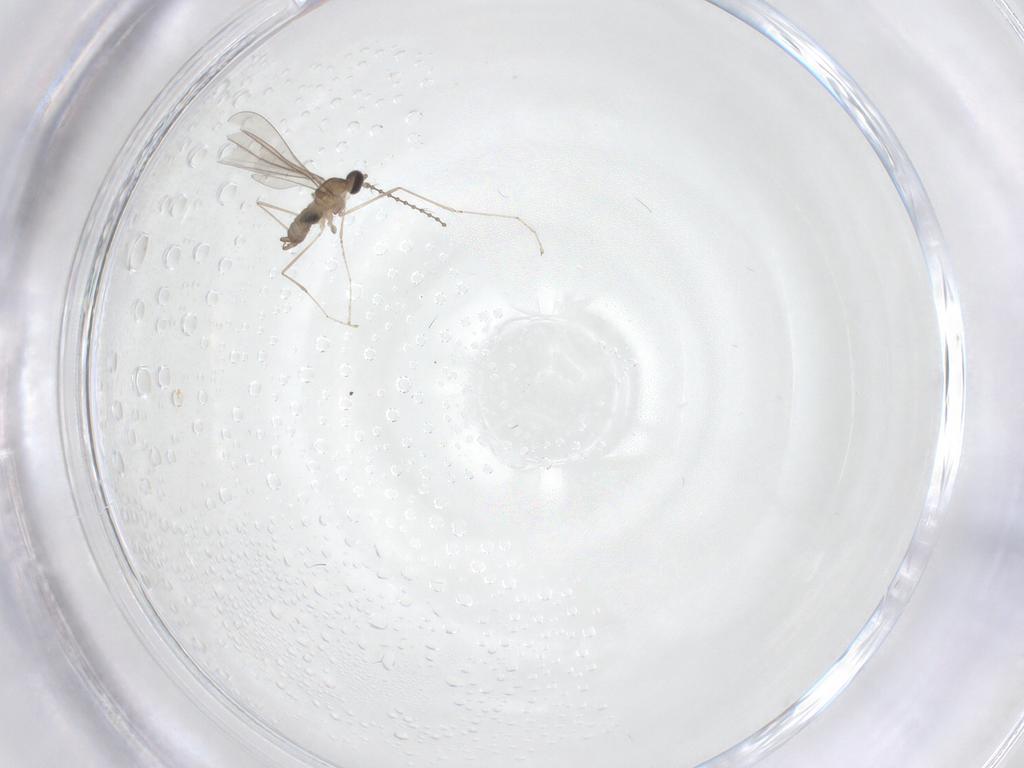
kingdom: Animalia
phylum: Arthropoda
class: Insecta
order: Diptera
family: Cecidomyiidae
